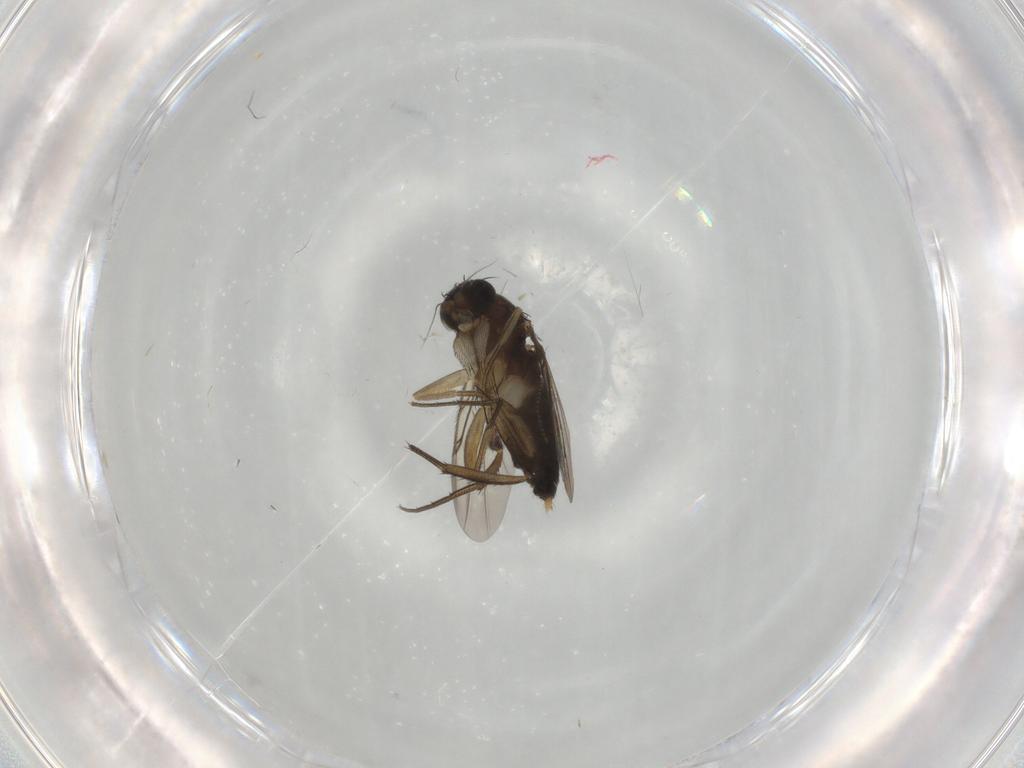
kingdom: Animalia
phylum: Arthropoda
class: Insecta
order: Diptera
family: Phoridae
